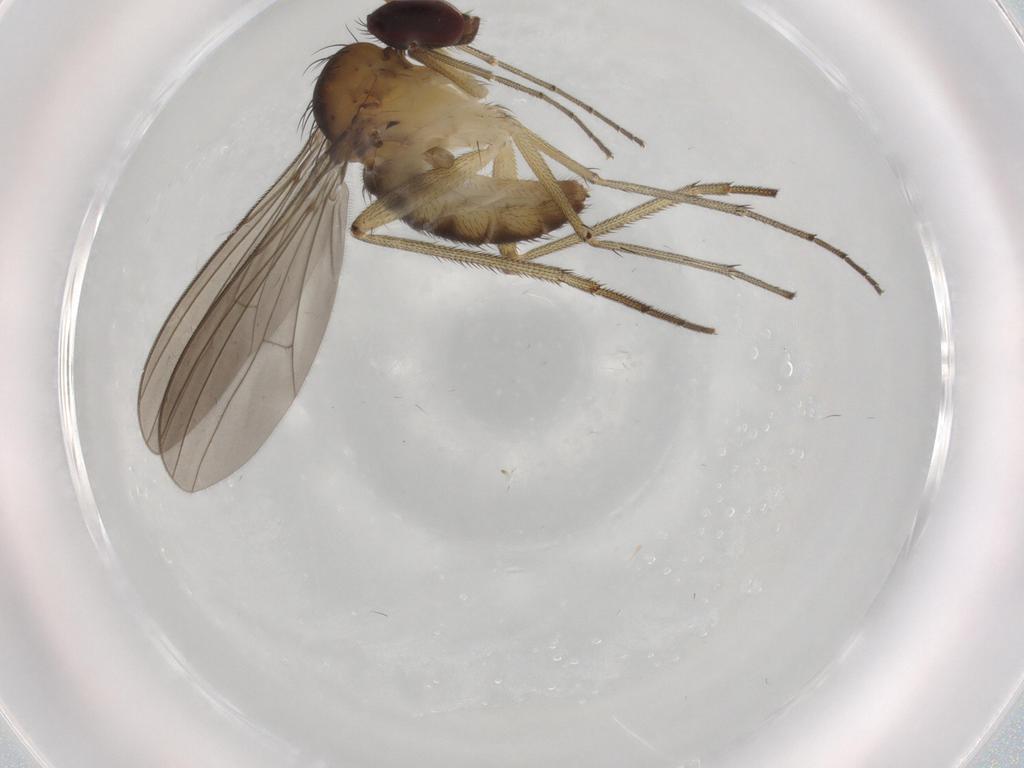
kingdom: Animalia
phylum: Arthropoda
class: Insecta
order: Diptera
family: Dolichopodidae
